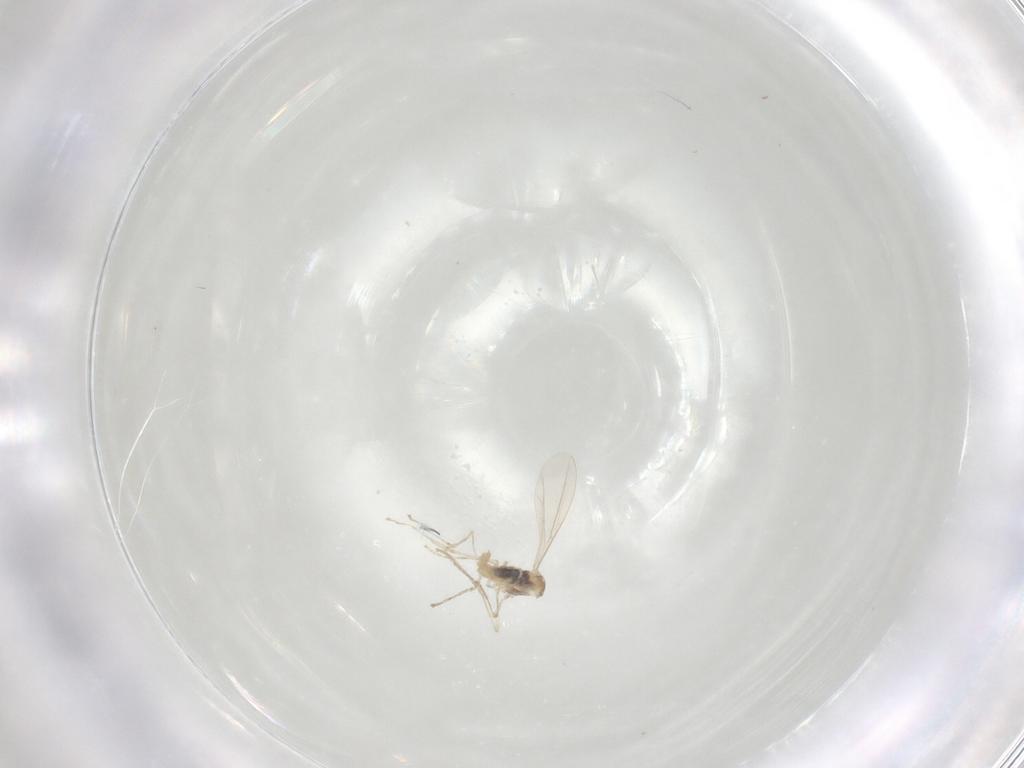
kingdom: Animalia
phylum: Arthropoda
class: Insecta
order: Diptera
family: Cecidomyiidae
